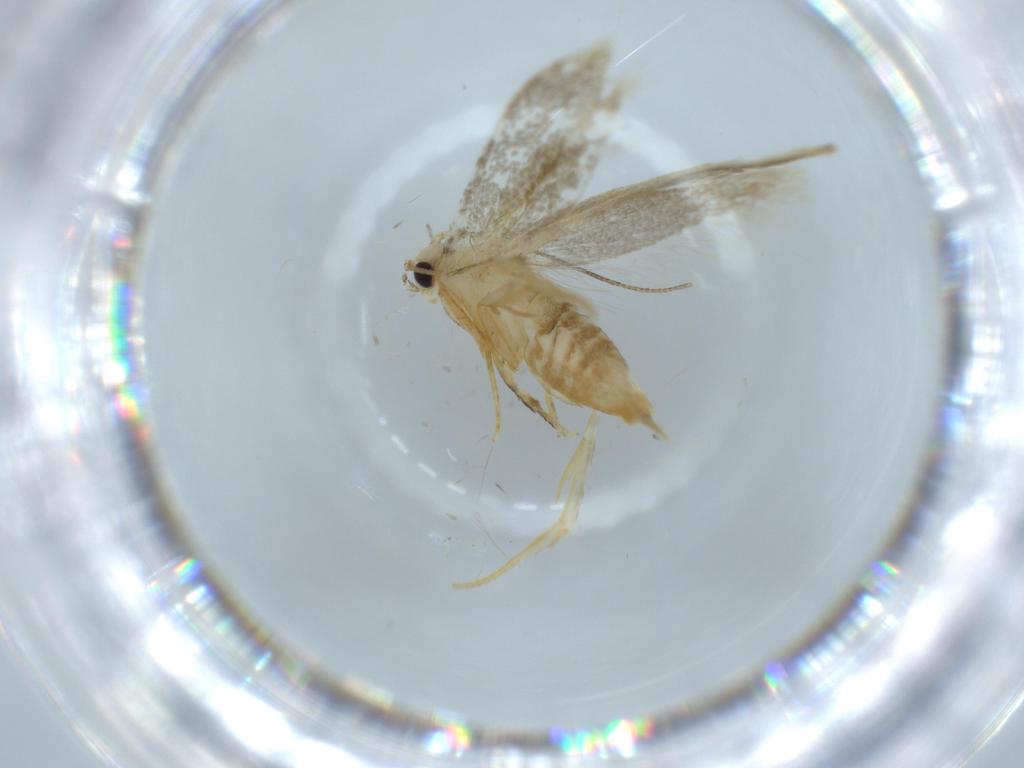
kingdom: Animalia
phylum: Arthropoda
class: Insecta
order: Lepidoptera
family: Tineidae
